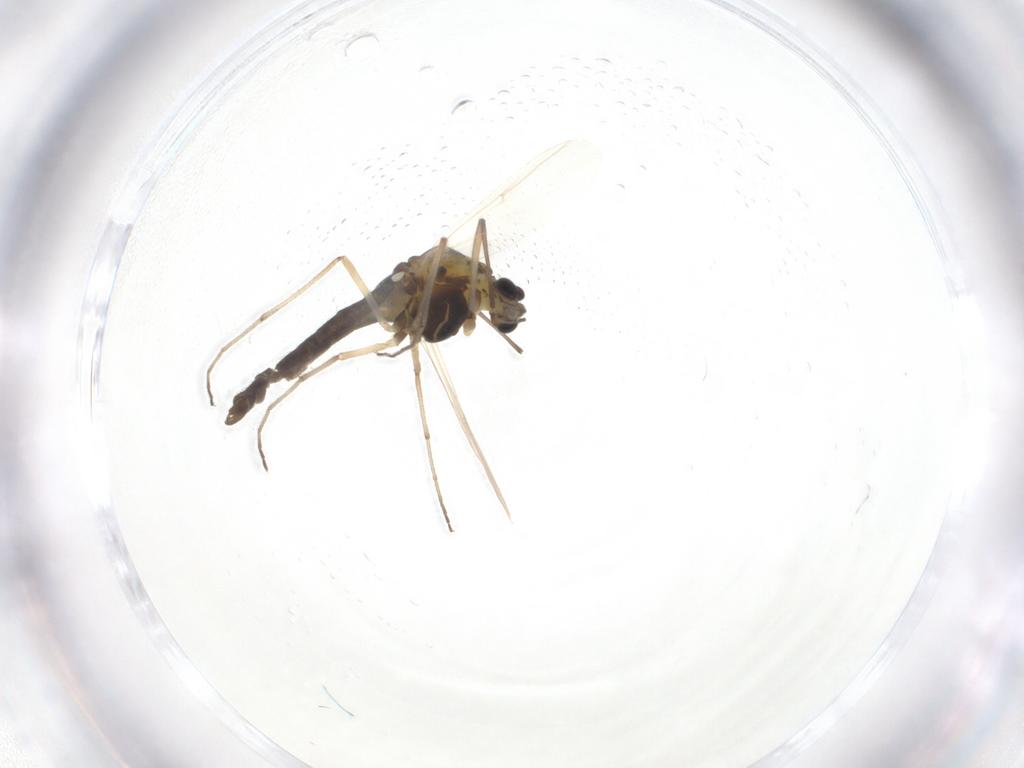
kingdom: Animalia
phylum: Arthropoda
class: Insecta
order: Diptera
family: Chironomidae
